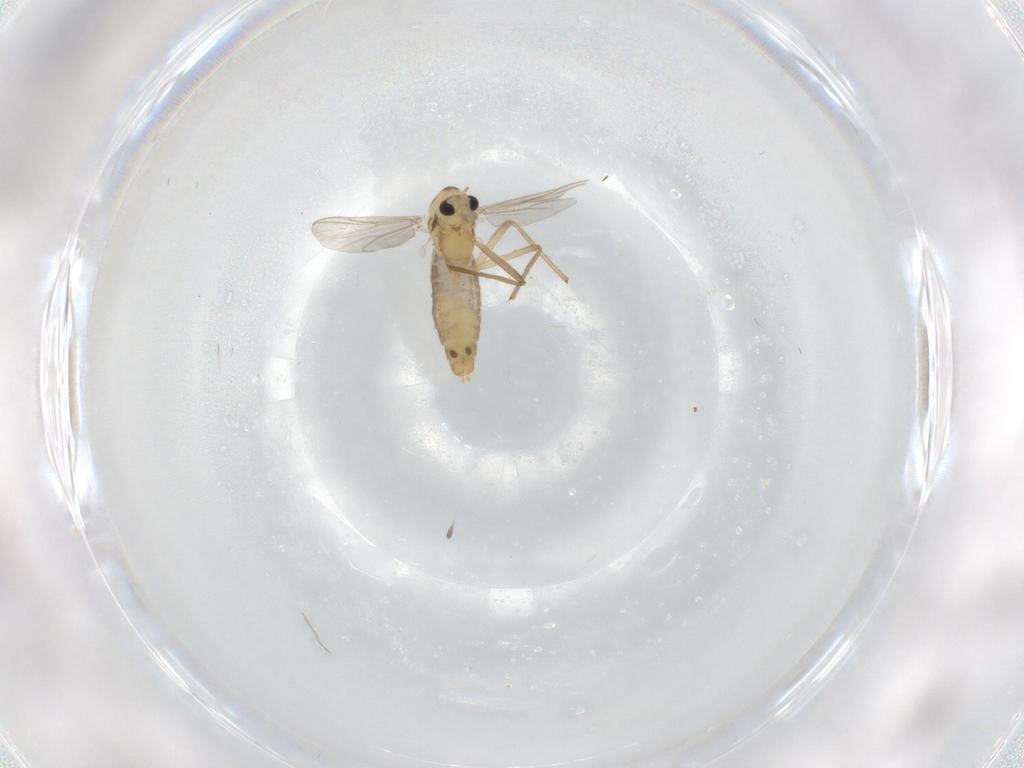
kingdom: Animalia
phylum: Arthropoda
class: Insecta
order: Diptera
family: Chironomidae
